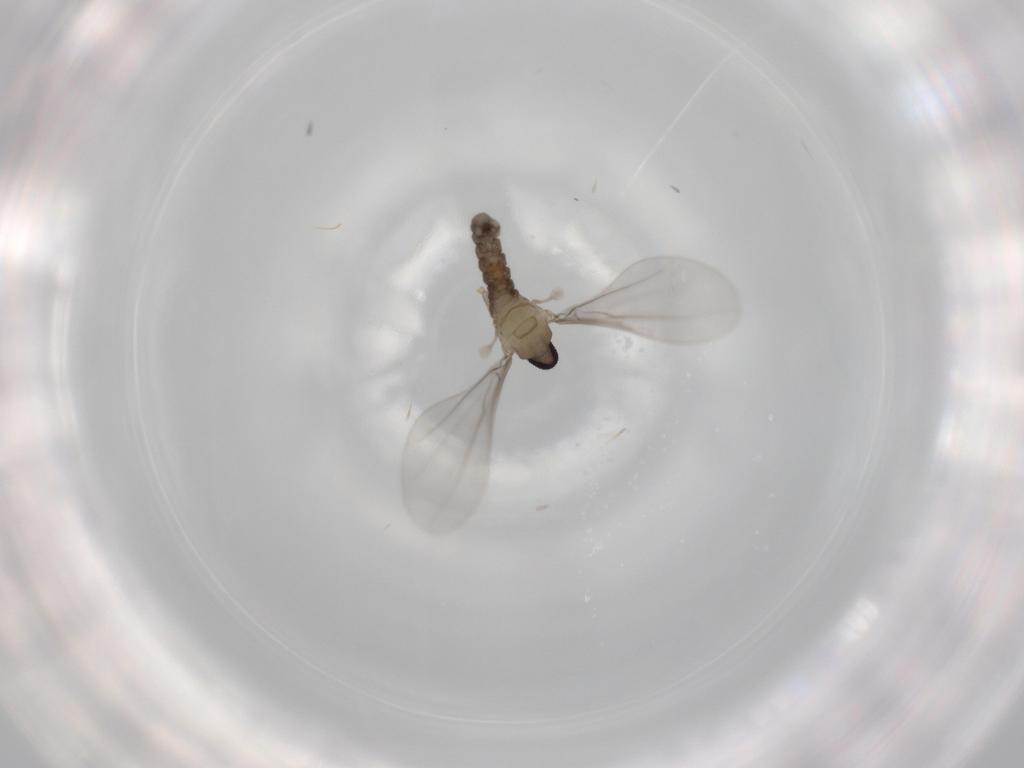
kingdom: Animalia
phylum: Arthropoda
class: Insecta
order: Diptera
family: Cecidomyiidae
